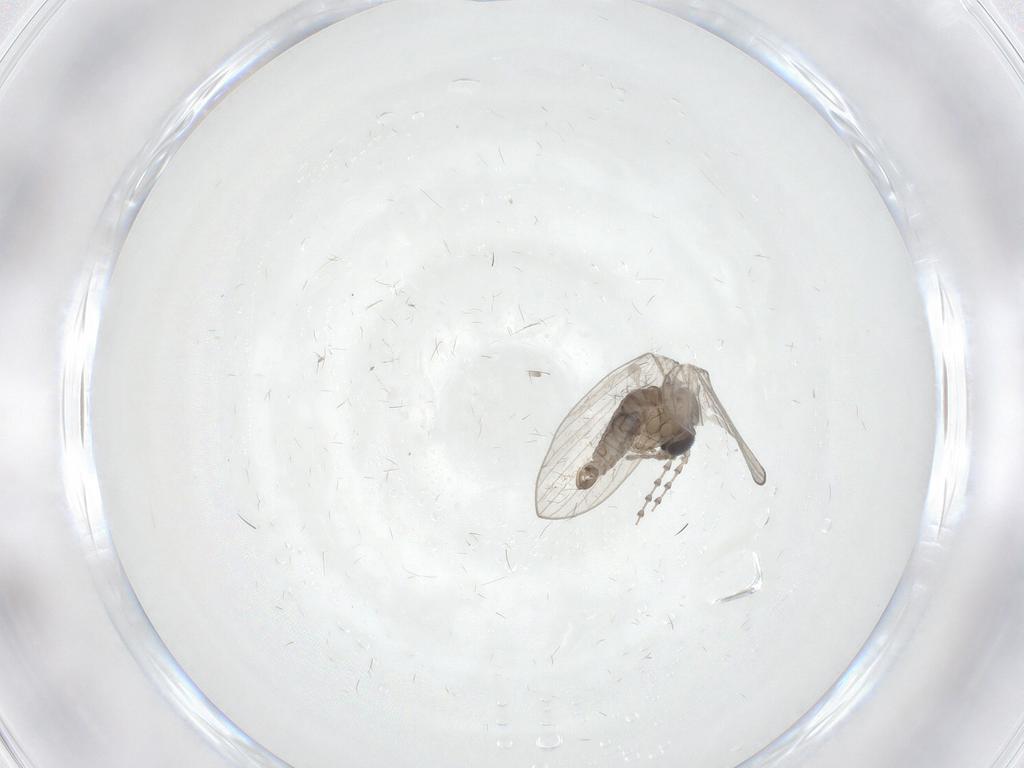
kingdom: Animalia
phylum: Arthropoda
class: Insecta
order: Diptera
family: Psychodidae
